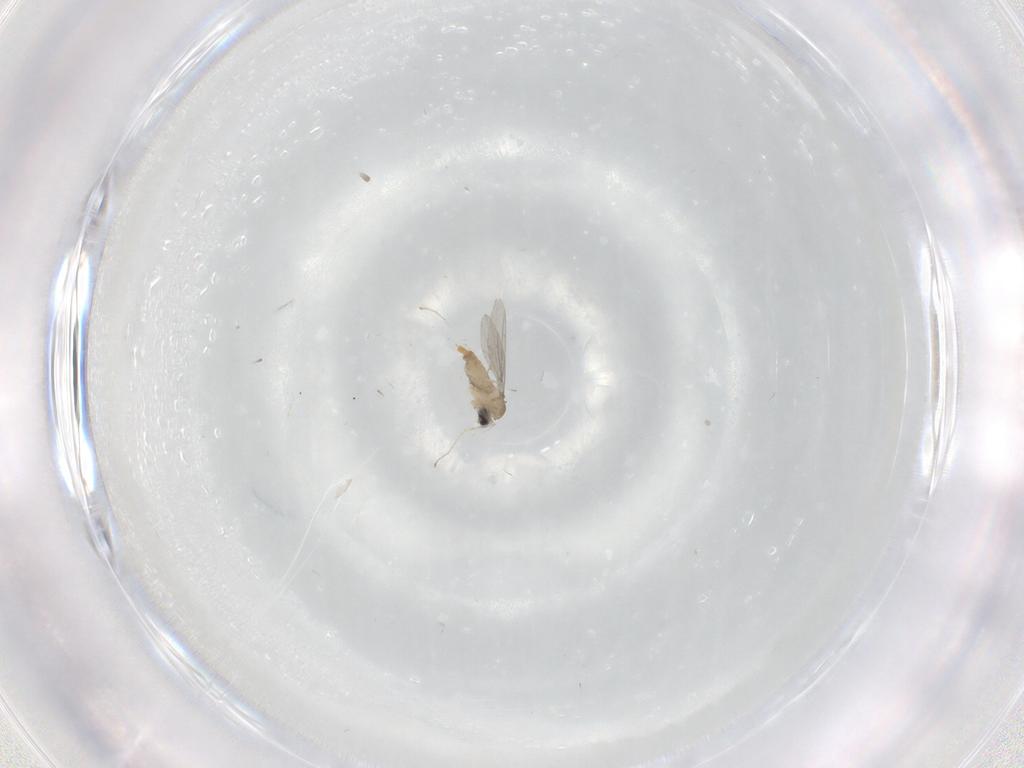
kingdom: Animalia
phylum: Arthropoda
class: Insecta
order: Diptera
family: Cecidomyiidae
